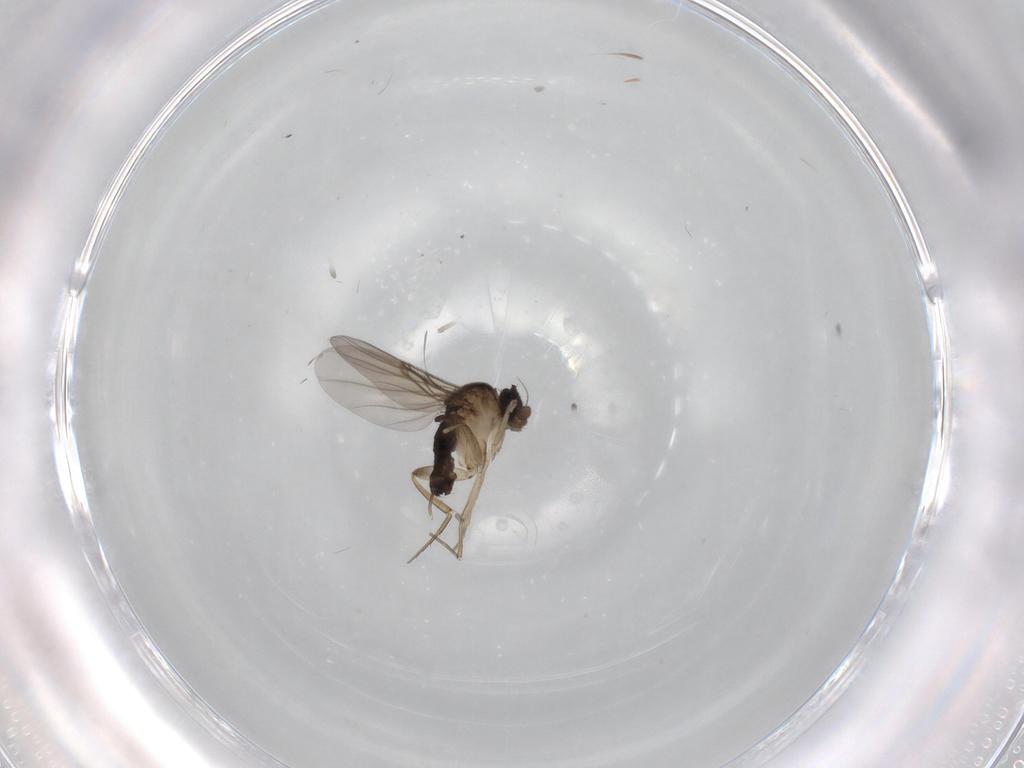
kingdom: Animalia
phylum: Arthropoda
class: Insecta
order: Diptera
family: Phoridae
